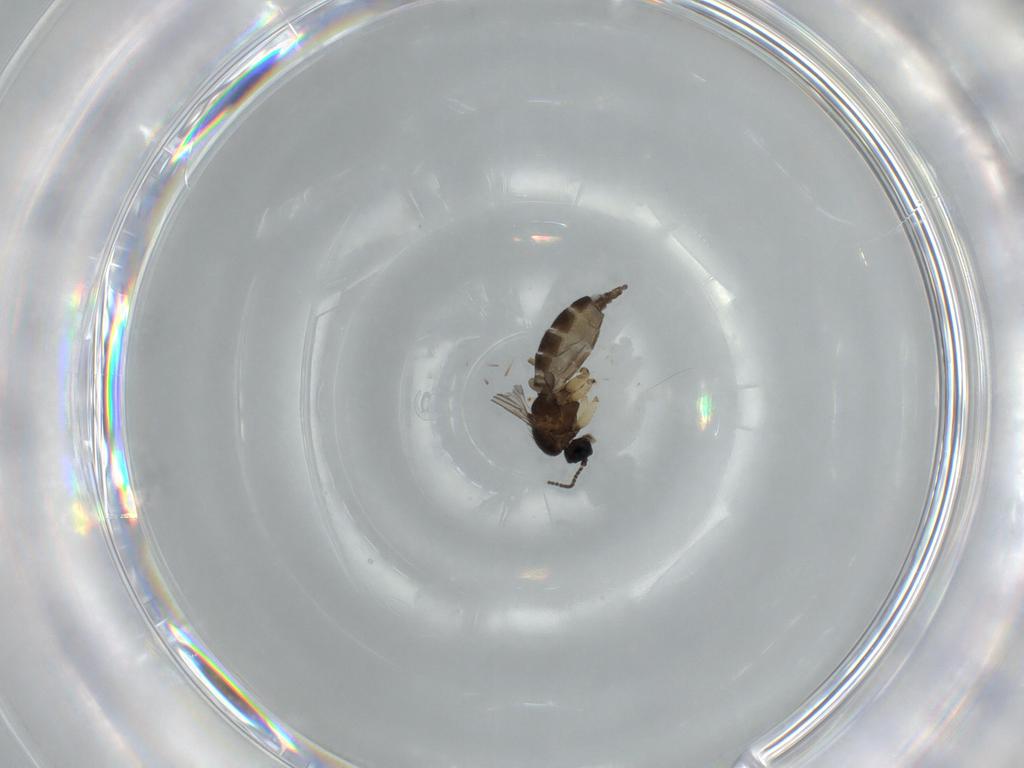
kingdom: Animalia
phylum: Arthropoda
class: Insecta
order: Diptera
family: Sciaridae
